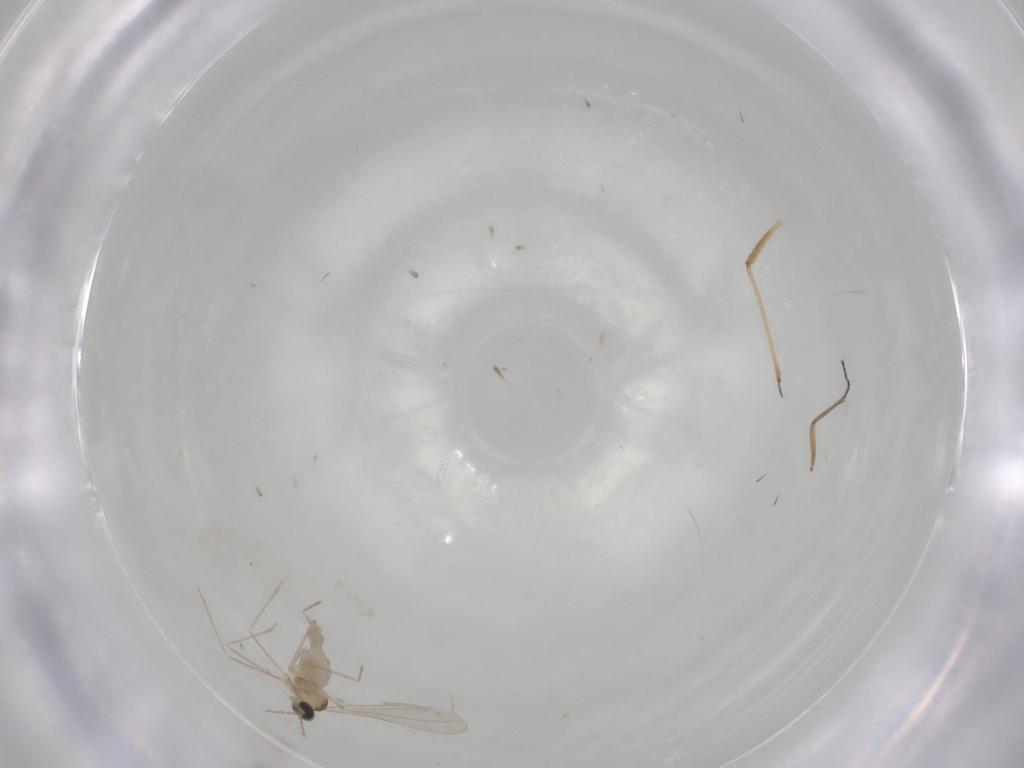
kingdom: Animalia
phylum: Arthropoda
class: Insecta
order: Diptera
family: Cecidomyiidae
